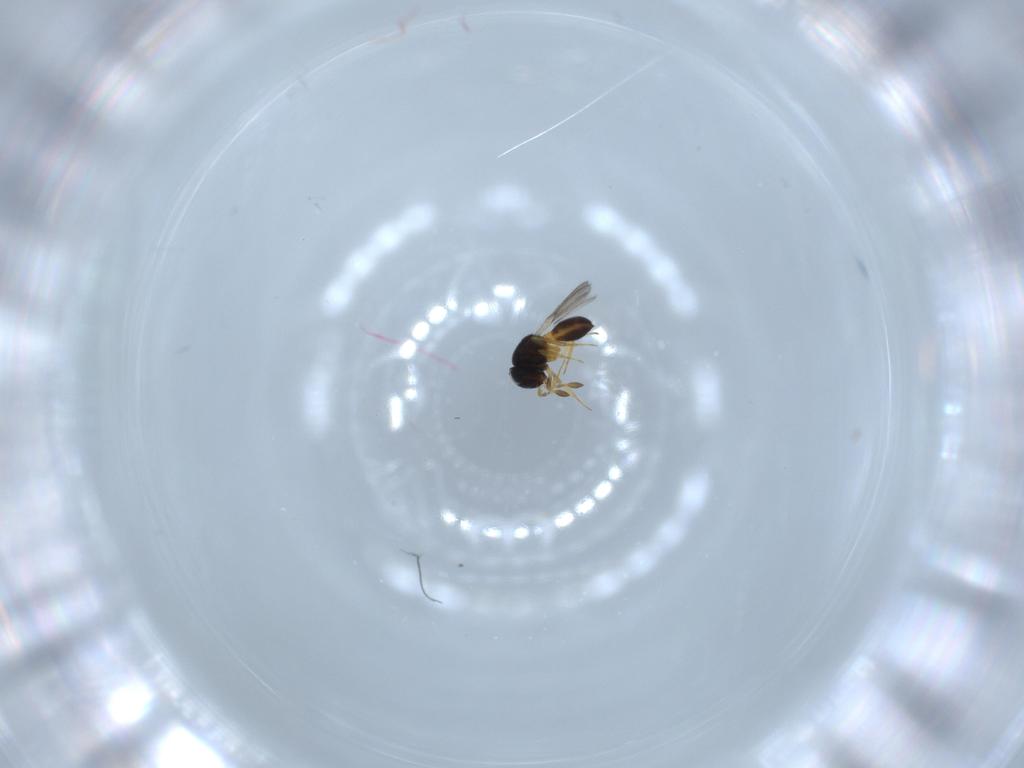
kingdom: Animalia
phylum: Arthropoda
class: Insecta
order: Hymenoptera
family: Scelionidae
